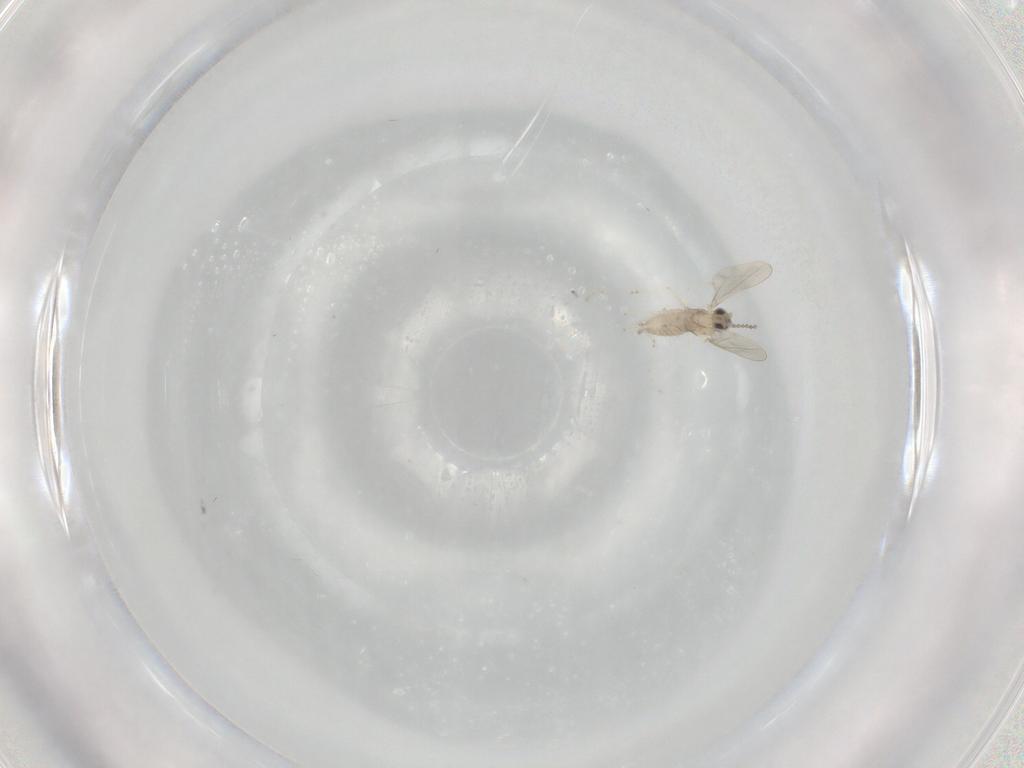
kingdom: Animalia
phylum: Arthropoda
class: Insecta
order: Diptera
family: Cecidomyiidae
